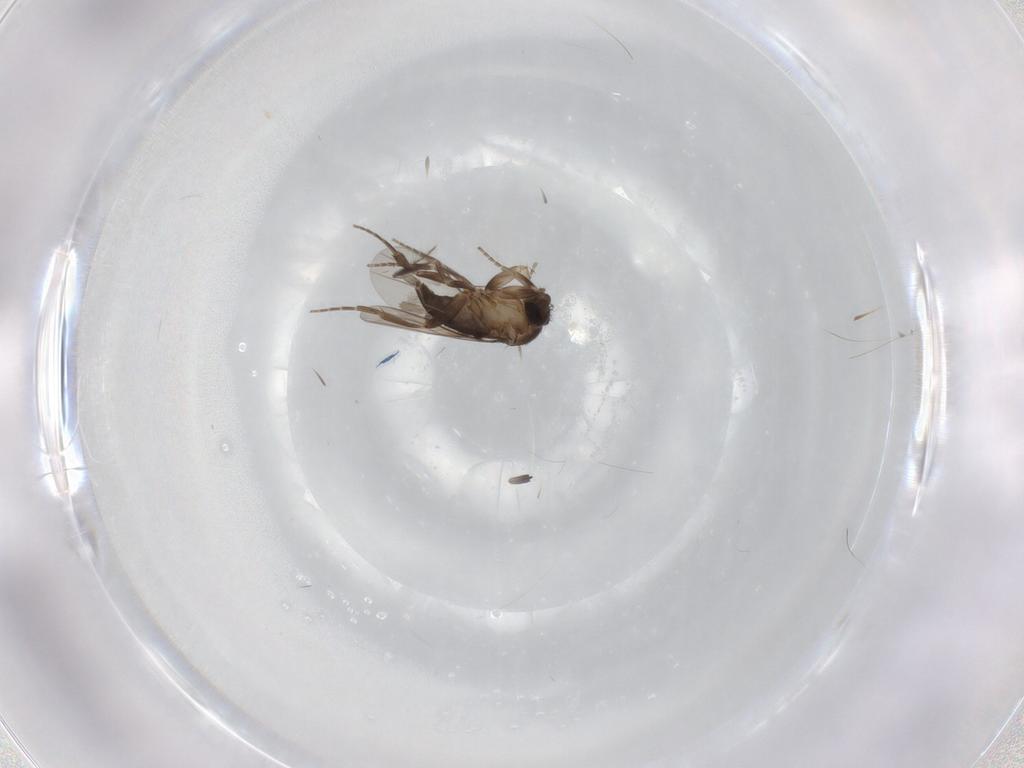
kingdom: Animalia
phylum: Arthropoda
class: Insecta
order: Diptera
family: Ceratopogonidae
